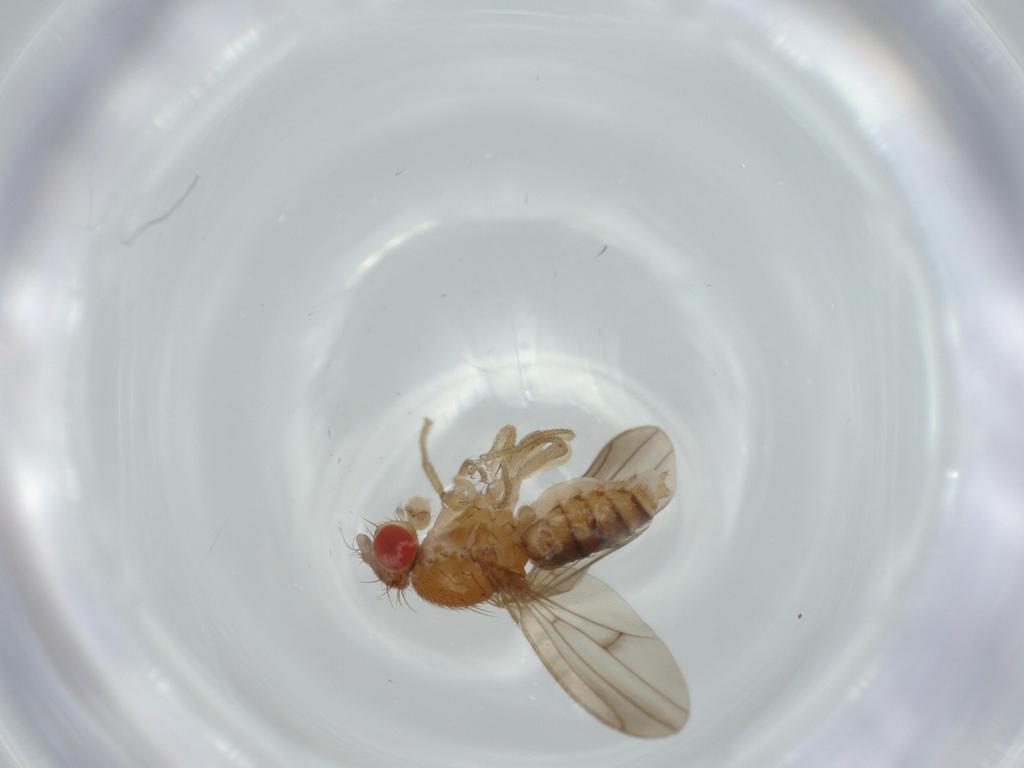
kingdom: Animalia
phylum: Arthropoda
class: Insecta
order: Diptera
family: Drosophilidae
